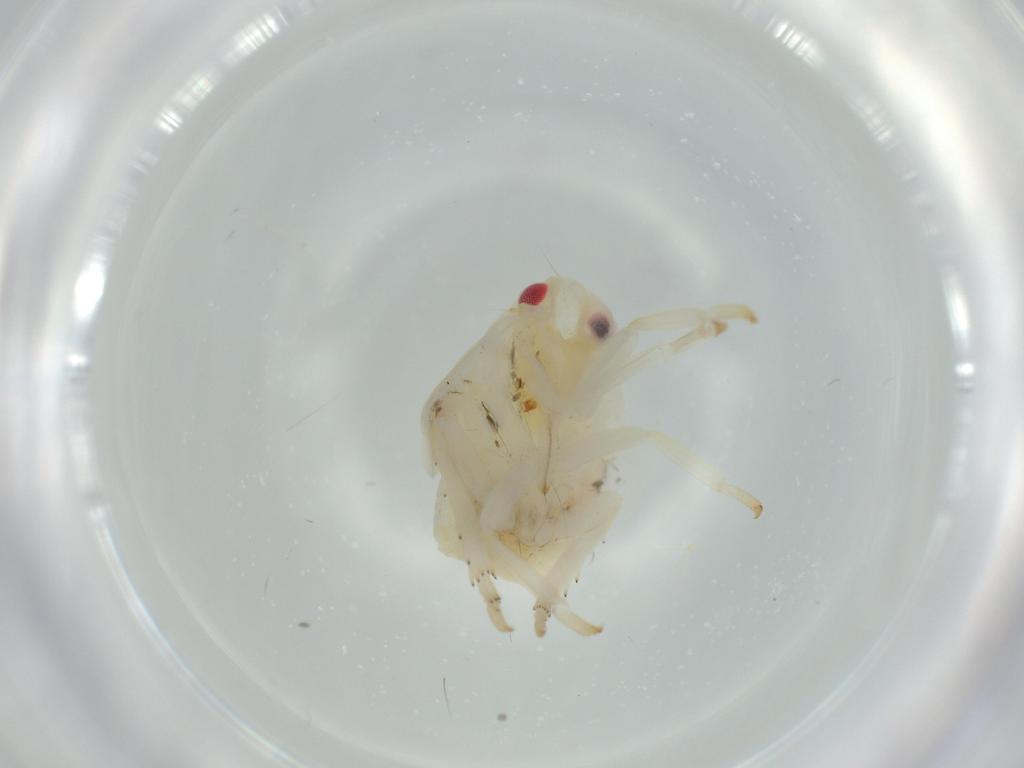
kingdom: Animalia
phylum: Arthropoda
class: Insecta
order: Hemiptera
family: Flatidae
